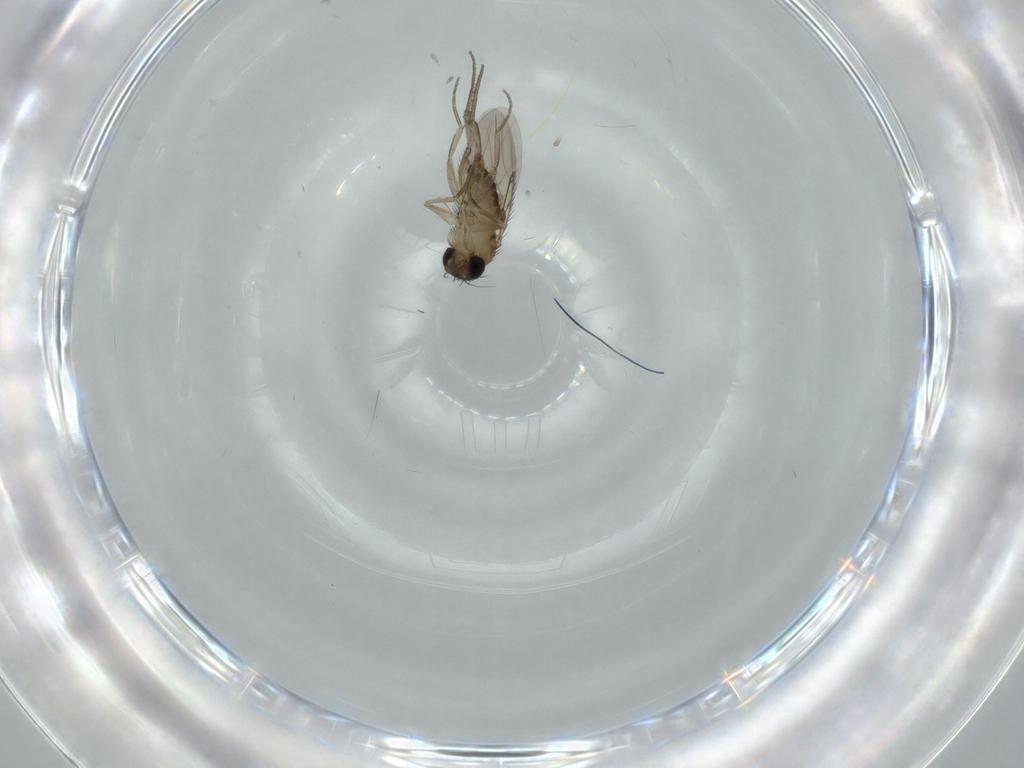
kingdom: Animalia
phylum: Arthropoda
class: Insecta
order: Diptera
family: Phoridae
